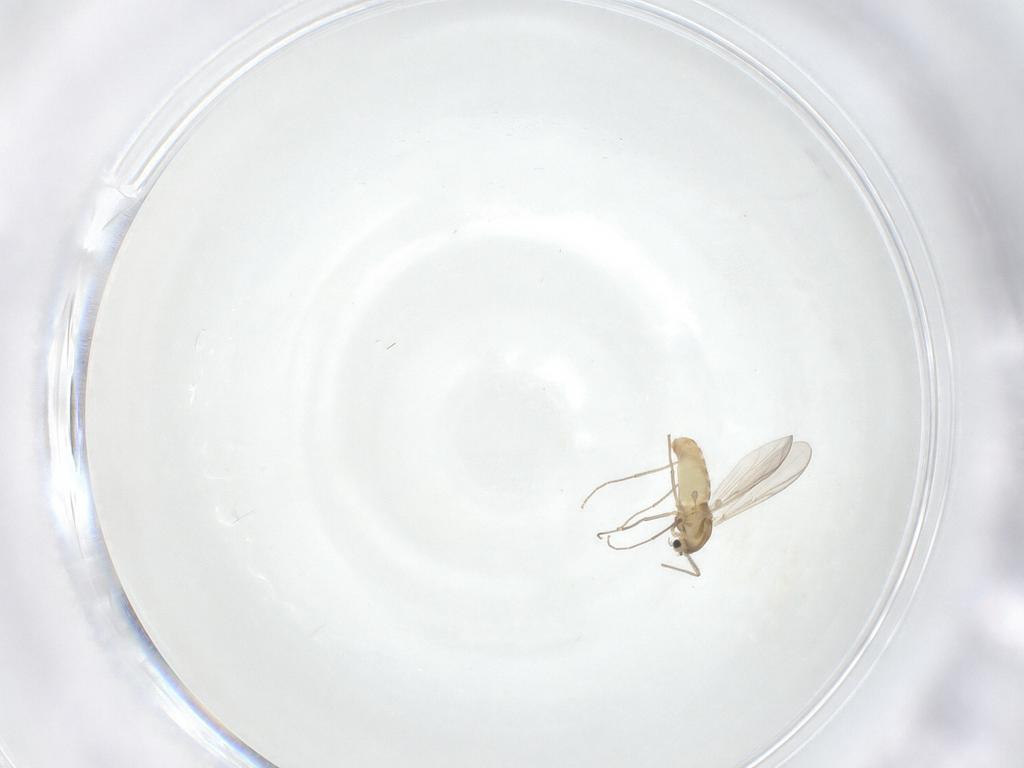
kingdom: Animalia
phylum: Arthropoda
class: Insecta
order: Diptera
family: Chironomidae
